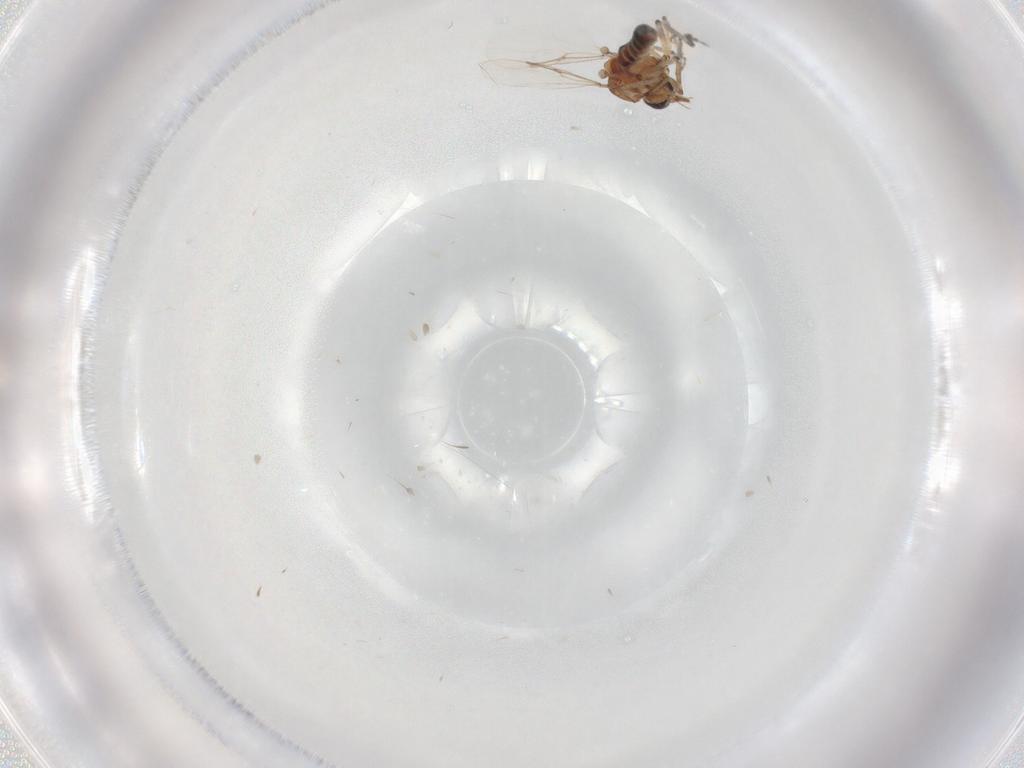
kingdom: Animalia
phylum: Arthropoda
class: Insecta
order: Diptera
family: Ceratopogonidae
